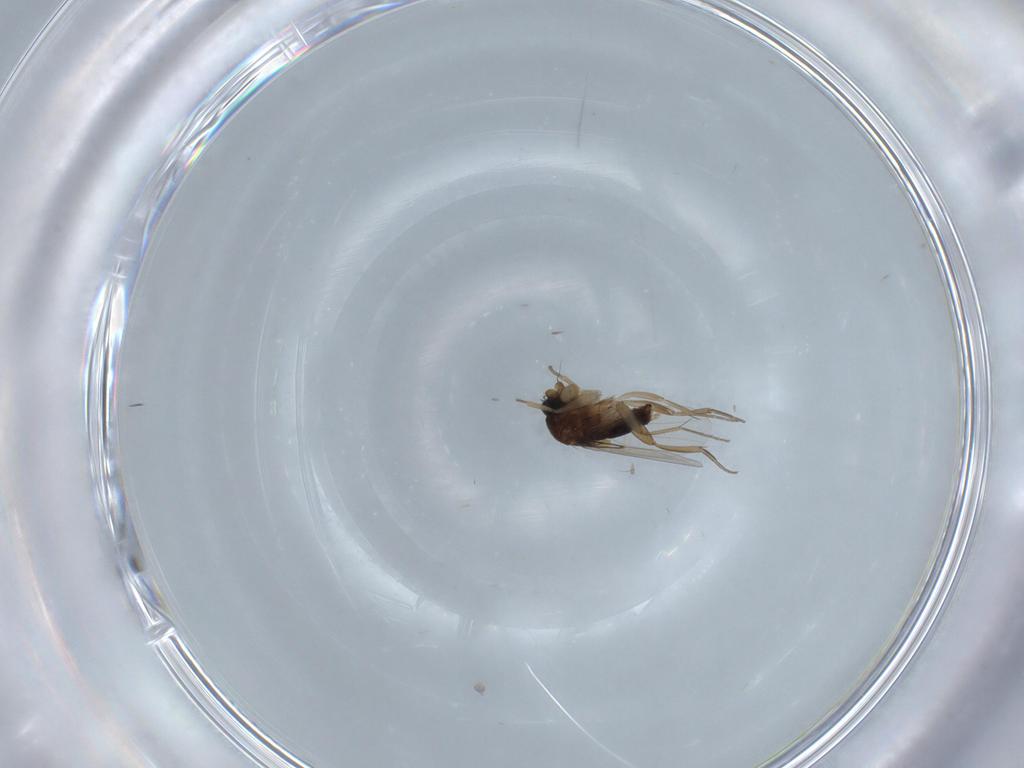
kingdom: Animalia
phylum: Arthropoda
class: Insecta
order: Diptera
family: Phoridae
